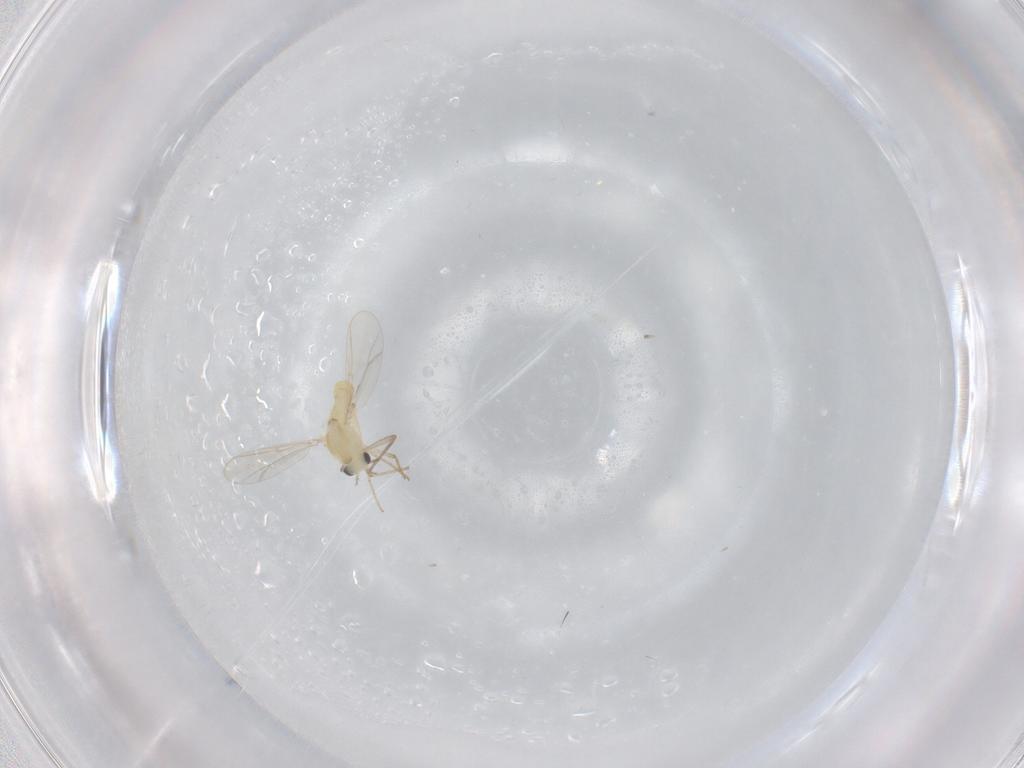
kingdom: Animalia
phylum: Arthropoda
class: Insecta
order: Diptera
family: Chironomidae
